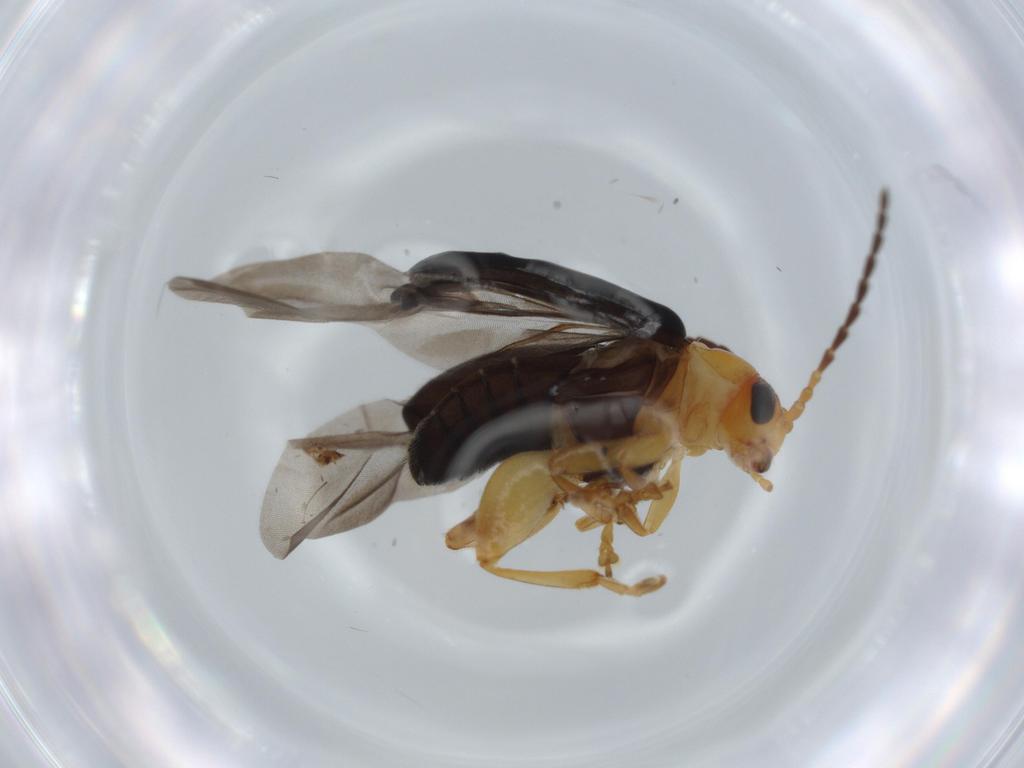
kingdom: Animalia
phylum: Arthropoda
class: Insecta
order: Coleoptera
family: Chrysomelidae
